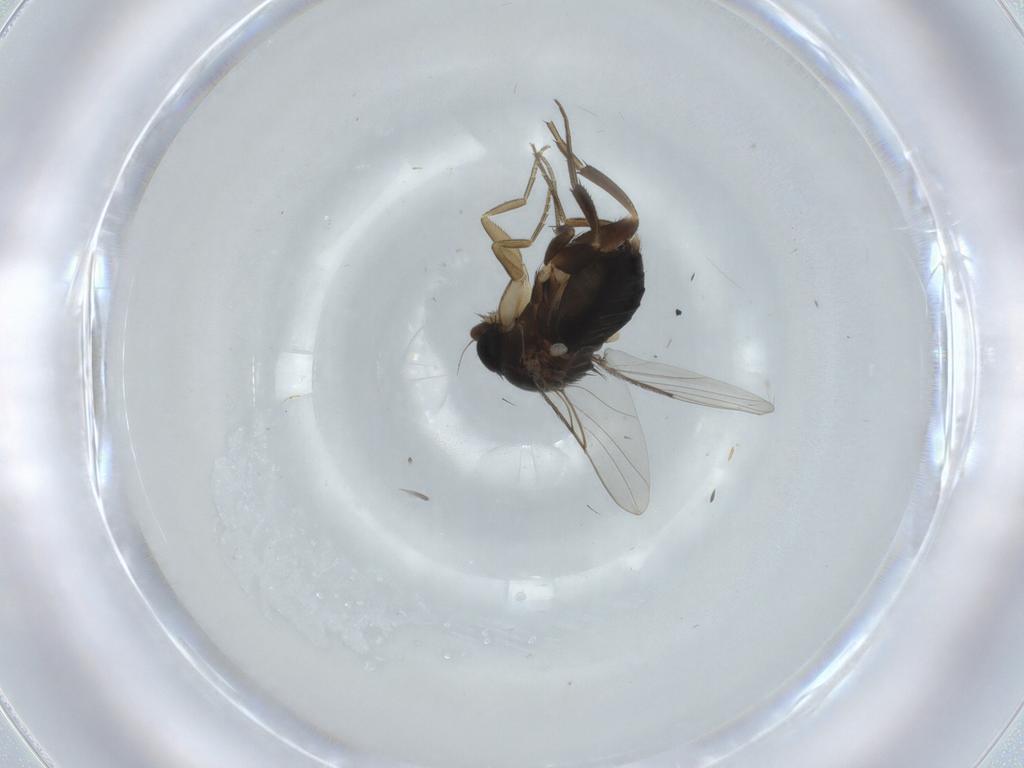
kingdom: Animalia
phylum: Arthropoda
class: Insecta
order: Diptera
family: Phoridae
